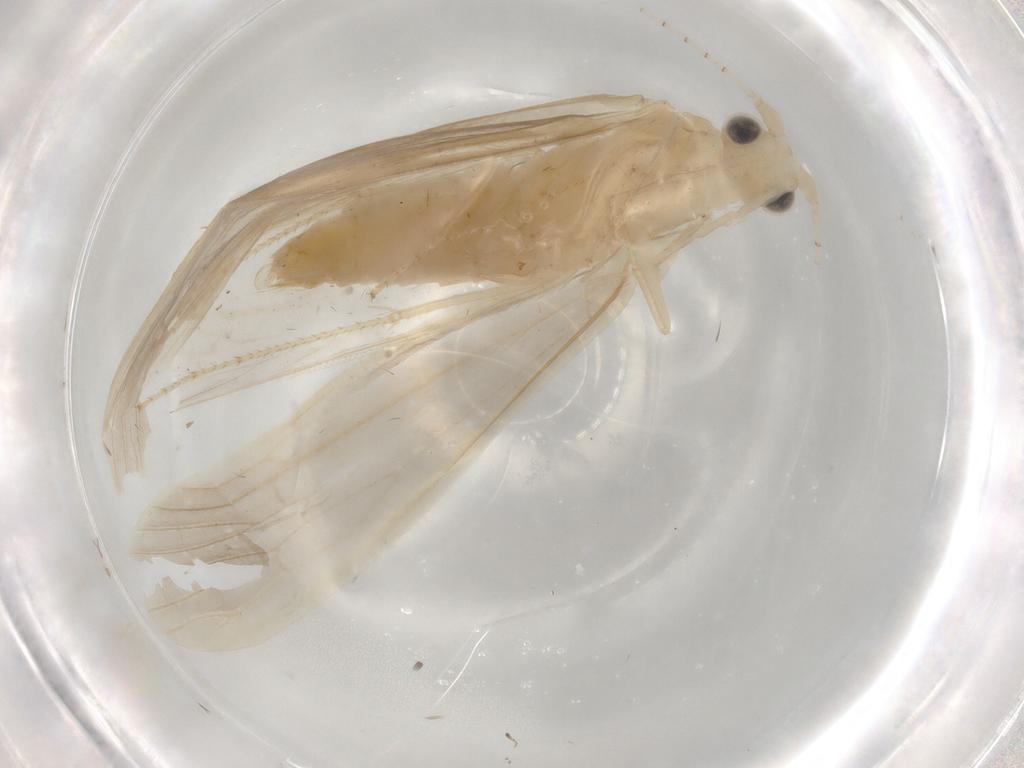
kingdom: Animalia
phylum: Arthropoda
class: Insecta
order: Trichoptera
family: Leptoceridae
